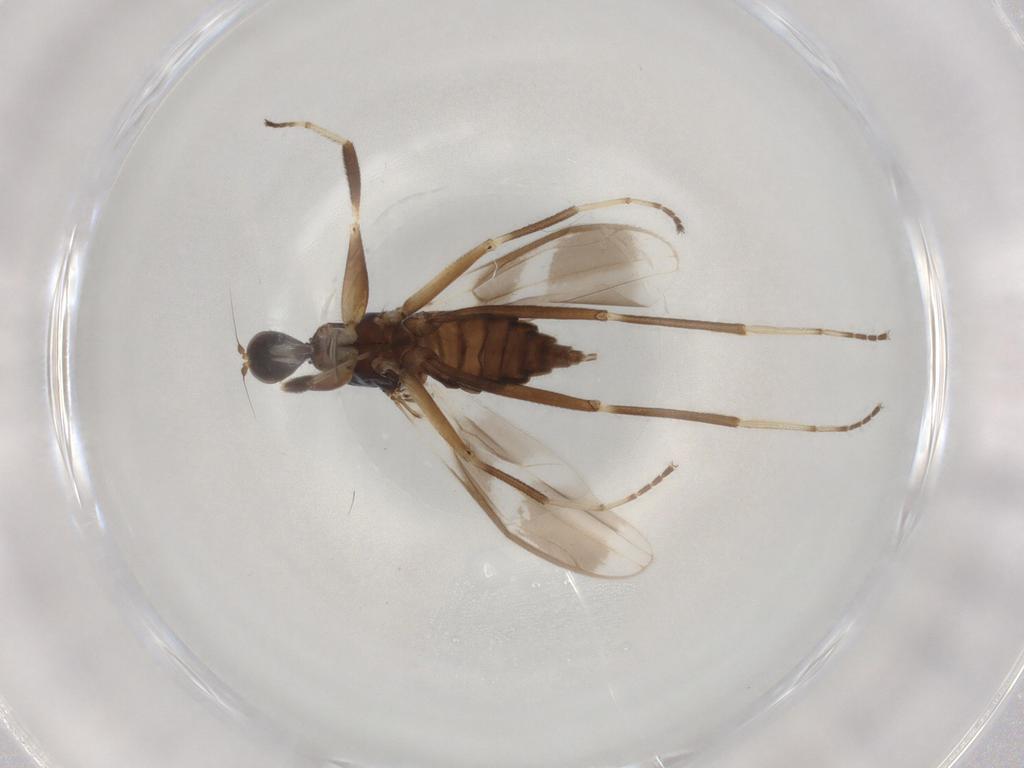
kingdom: Animalia
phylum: Arthropoda
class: Insecta
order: Diptera
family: Hybotidae
